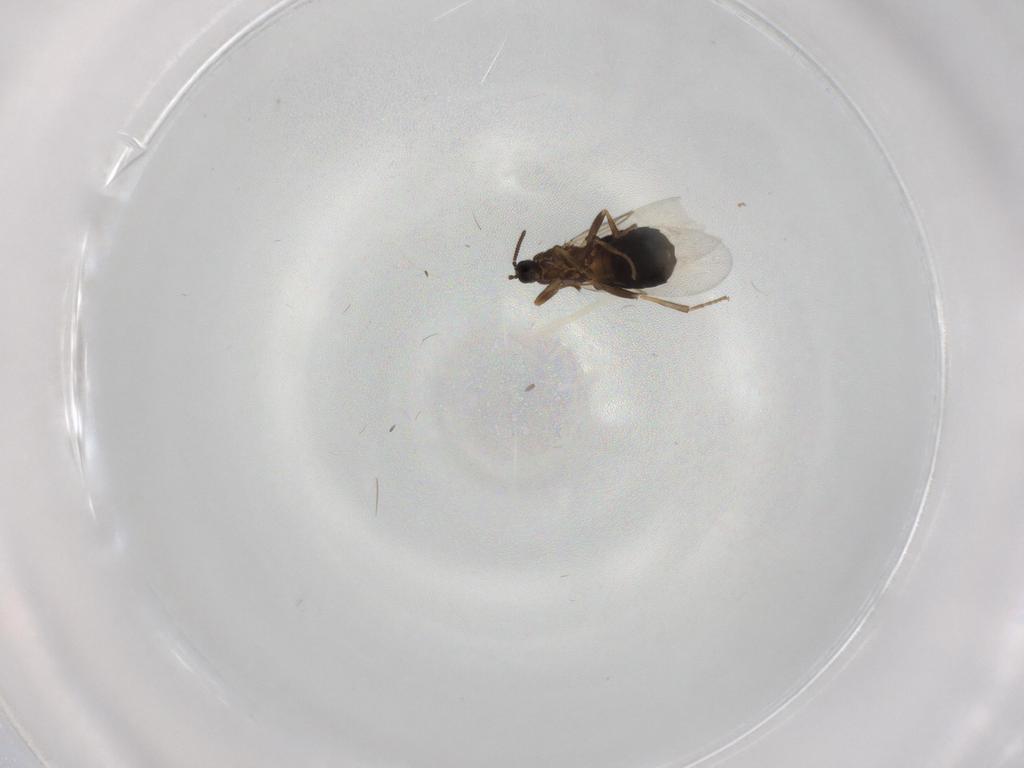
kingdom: Animalia
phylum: Arthropoda
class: Insecta
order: Diptera
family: Scatopsidae
